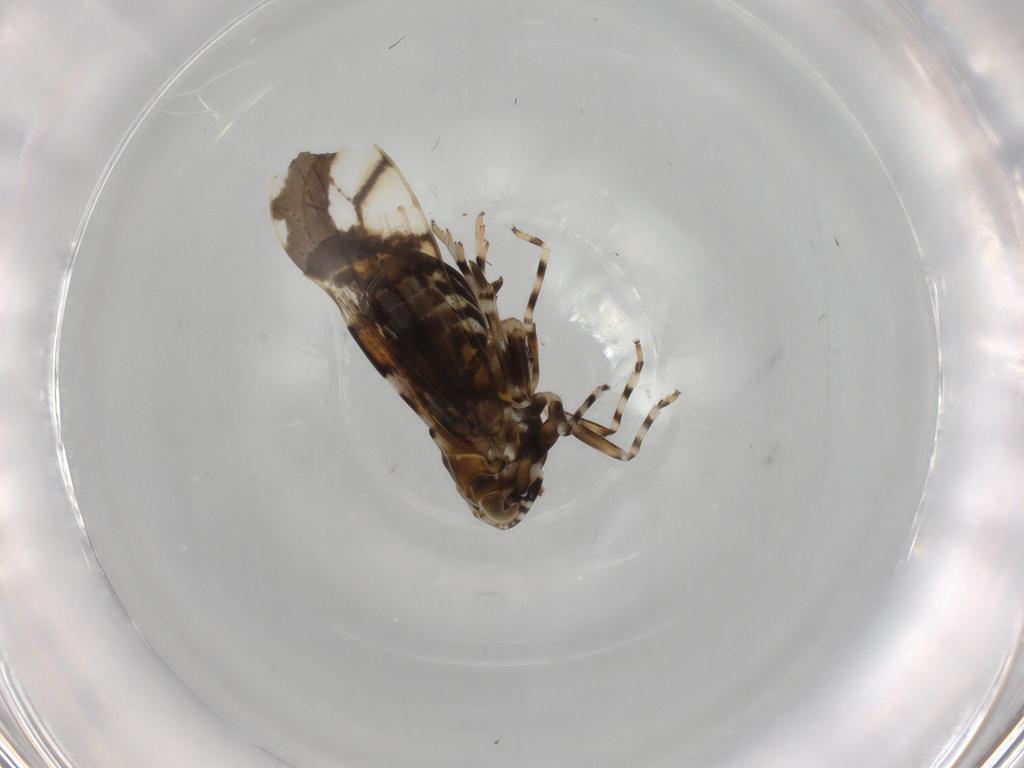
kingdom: Animalia
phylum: Arthropoda
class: Insecta
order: Hemiptera
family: Delphacidae
